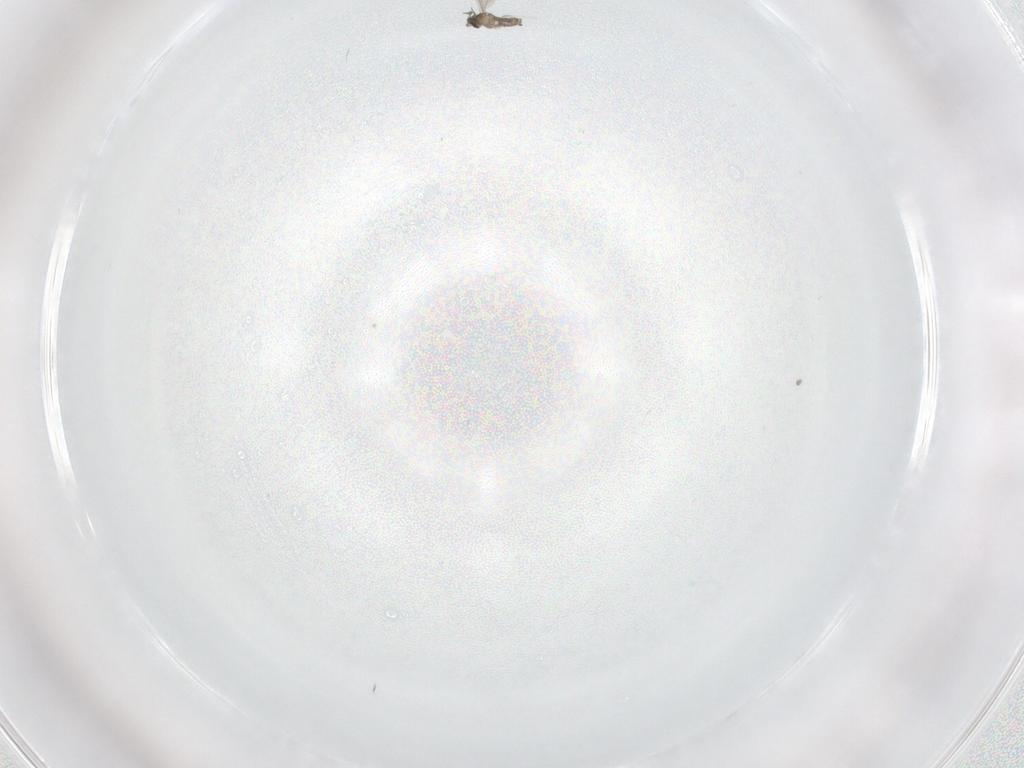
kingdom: Animalia
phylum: Arthropoda
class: Insecta
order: Diptera
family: Cecidomyiidae
